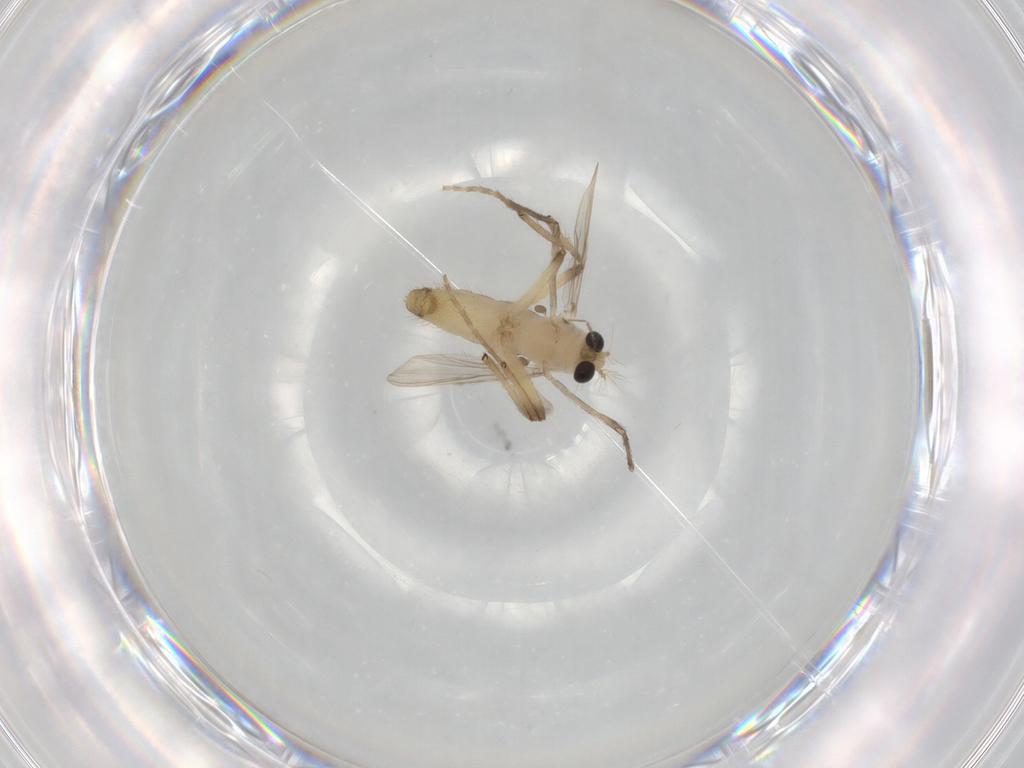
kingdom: Animalia
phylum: Arthropoda
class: Insecta
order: Diptera
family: Chironomidae
